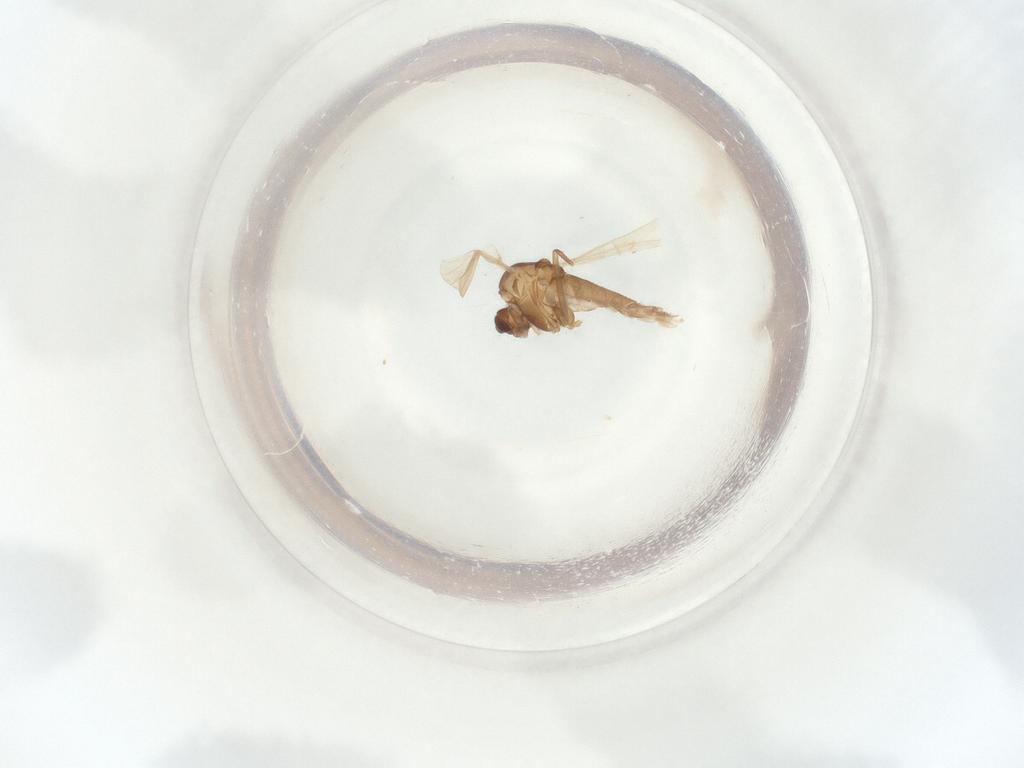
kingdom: Animalia
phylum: Arthropoda
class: Insecta
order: Diptera
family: Chironomidae
